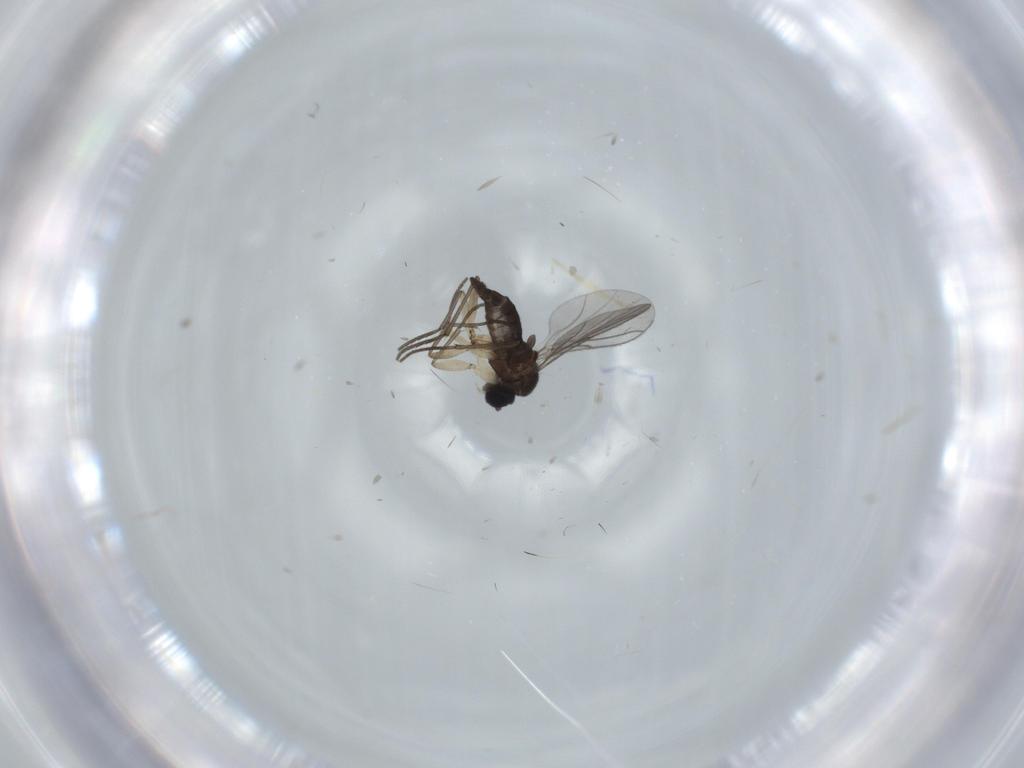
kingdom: Animalia
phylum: Arthropoda
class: Insecta
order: Diptera
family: Sciaridae
